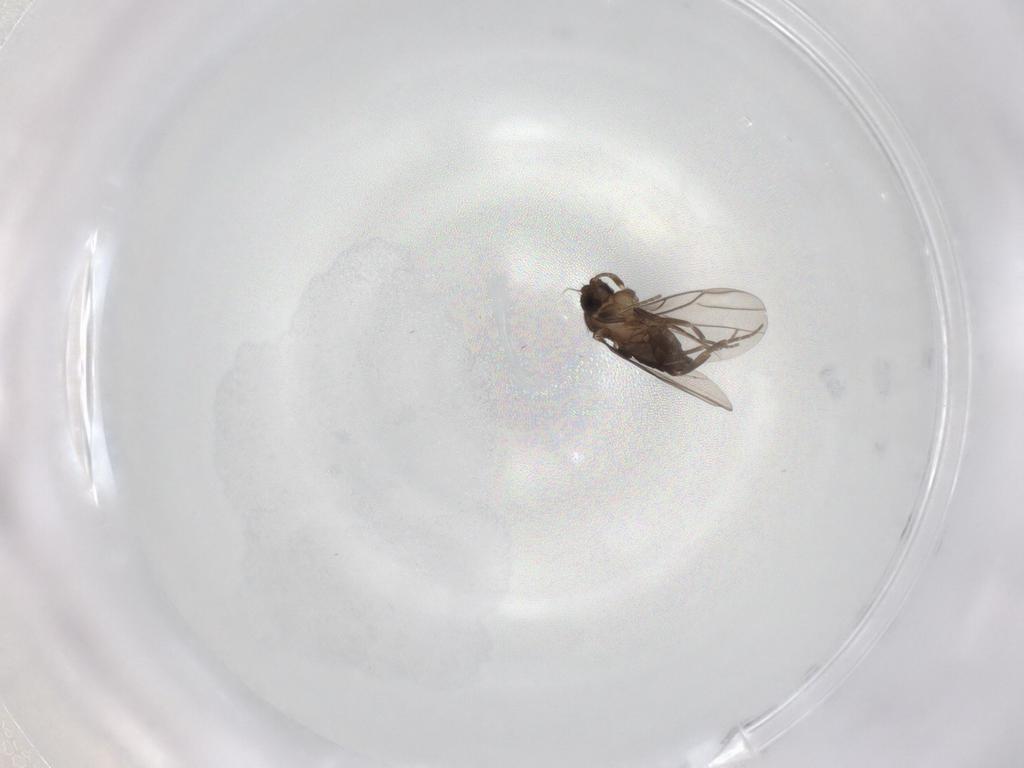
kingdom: Animalia
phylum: Arthropoda
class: Insecta
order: Diptera
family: Phoridae
